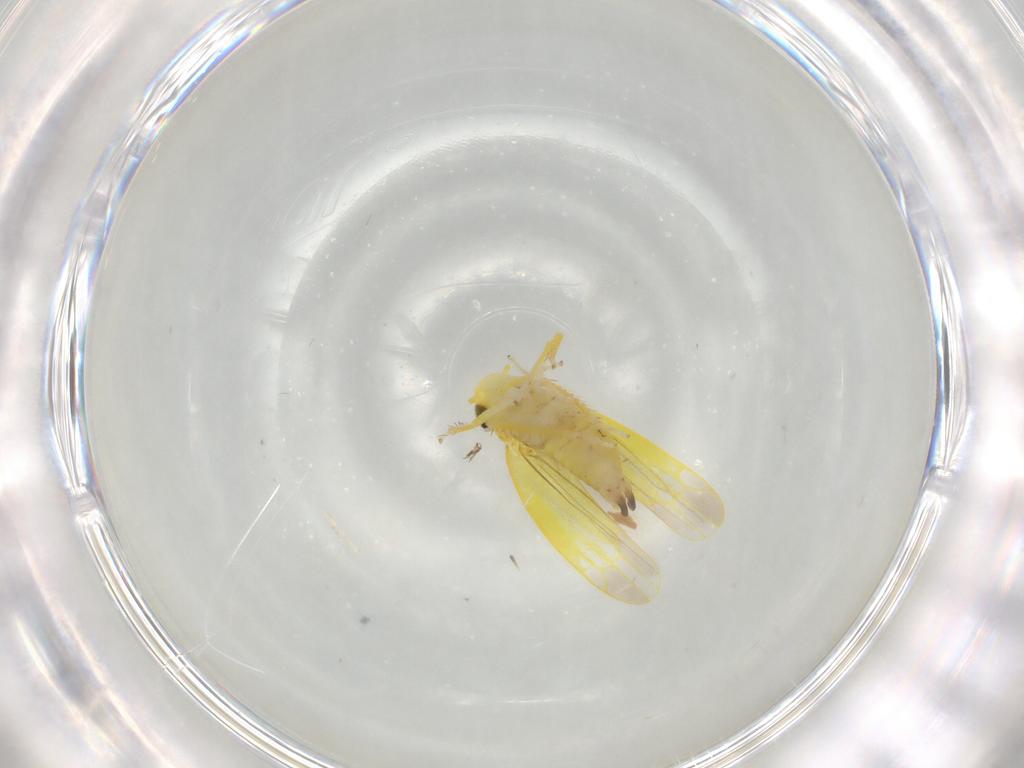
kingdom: Animalia
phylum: Arthropoda
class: Insecta
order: Hemiptera
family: Cicadellidae
